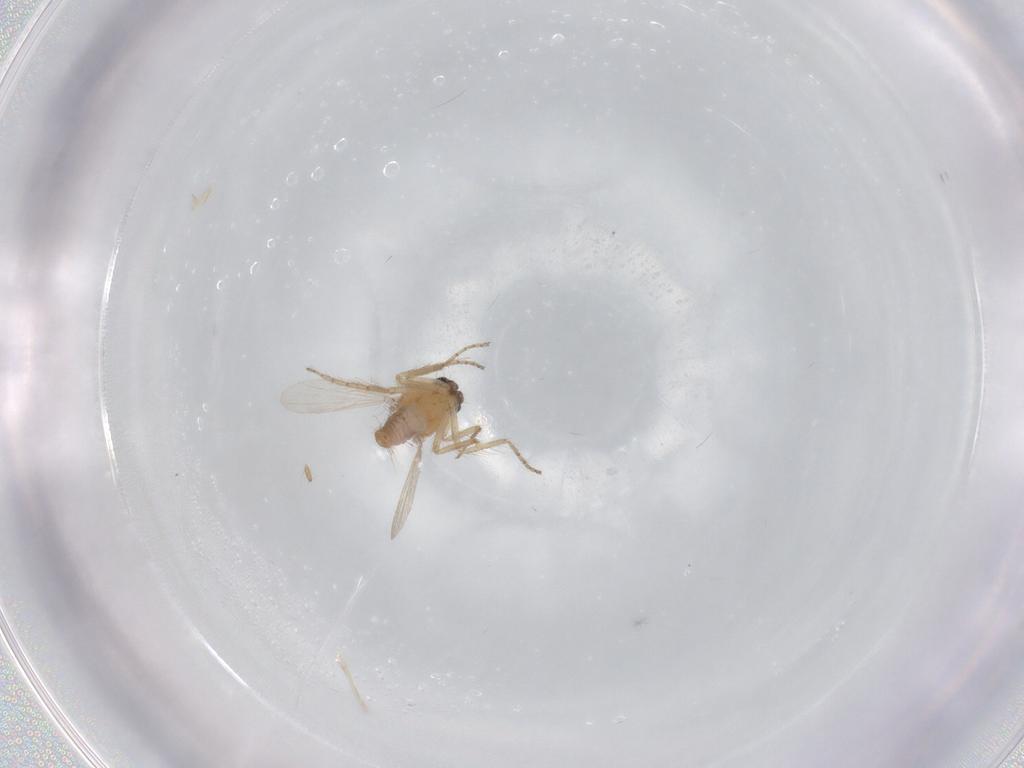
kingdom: Animalia
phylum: Arthropoda
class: Insecta
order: Diptera
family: Ceratopogonidae
